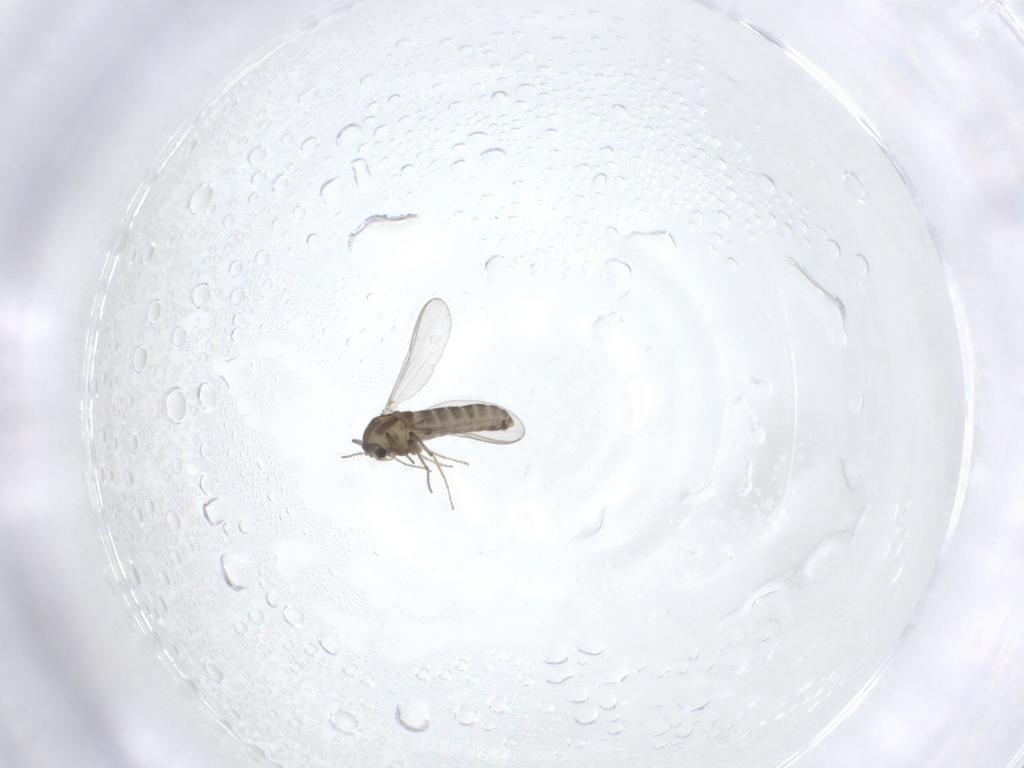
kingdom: Animalia
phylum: Arthropoda
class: Insecta
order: Diptera
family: Chironomidae
